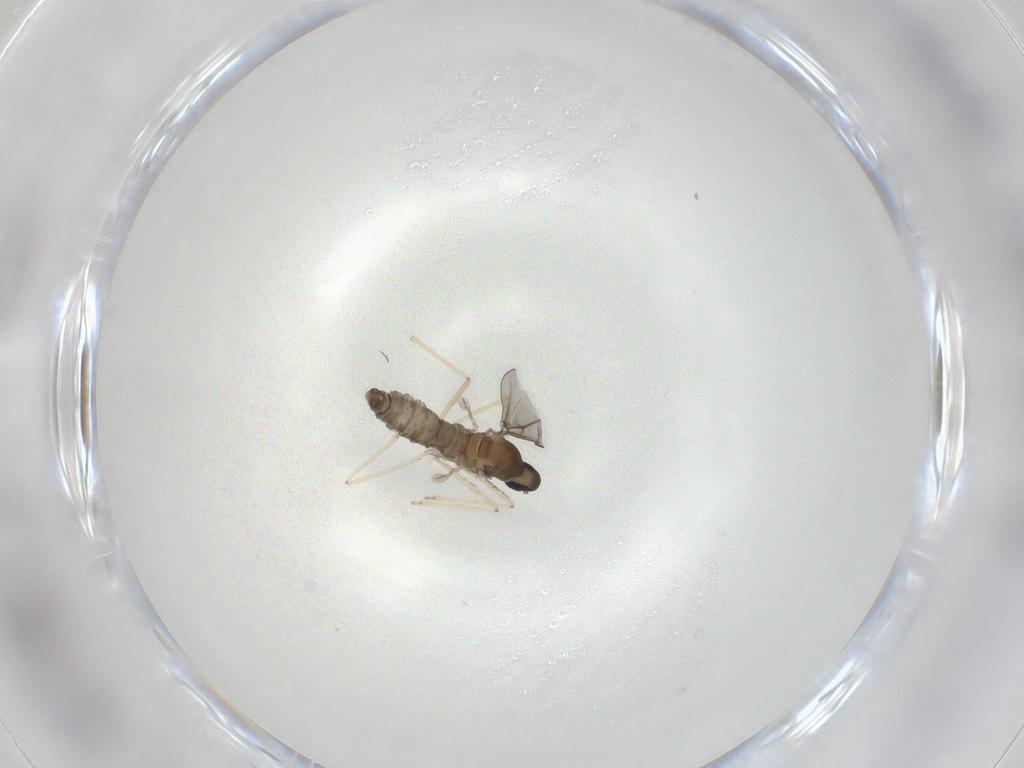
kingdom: Animalia
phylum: Arthropoda
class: Insecta
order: Diptera
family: Cecidomyiidae
